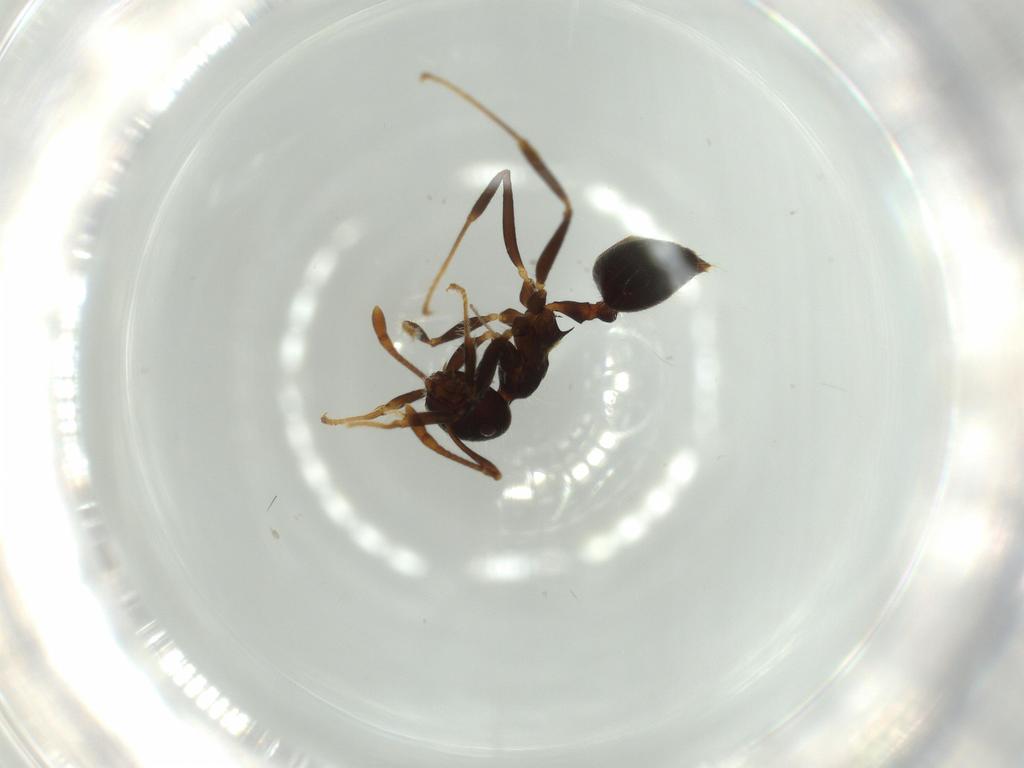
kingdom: Animalia
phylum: Arthropoda
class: Insecta
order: Hymenoptera
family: Formicidae
